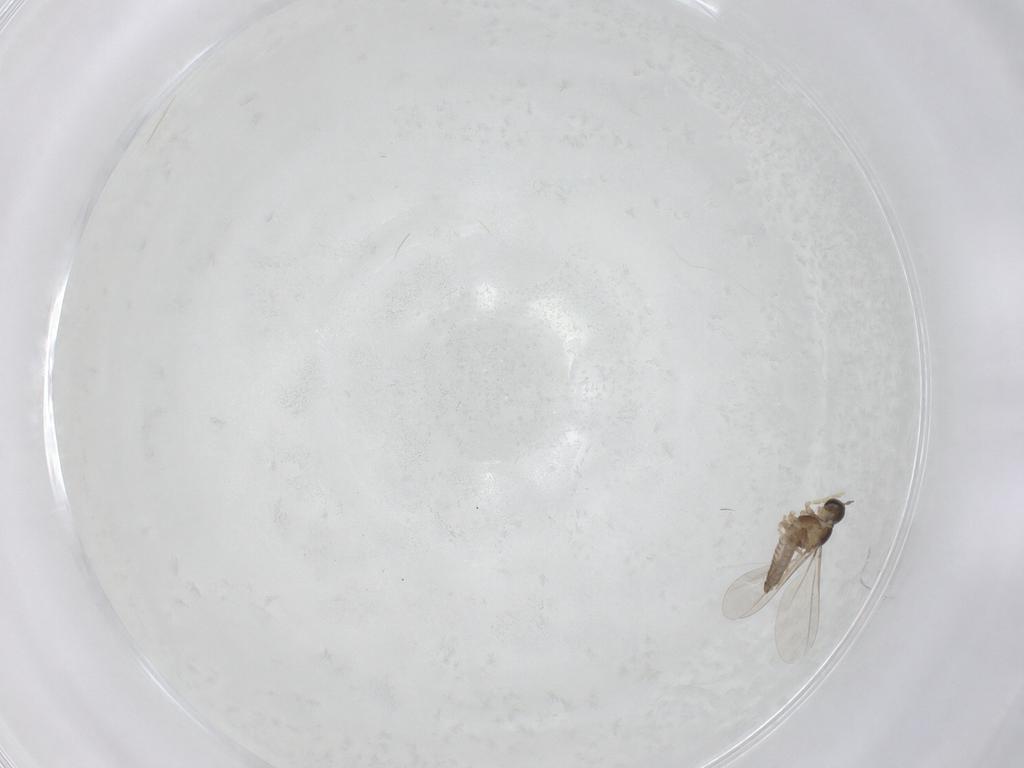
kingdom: Animalia
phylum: Arthropoda
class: Insecta
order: Diptera
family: Cecidomyiidae
